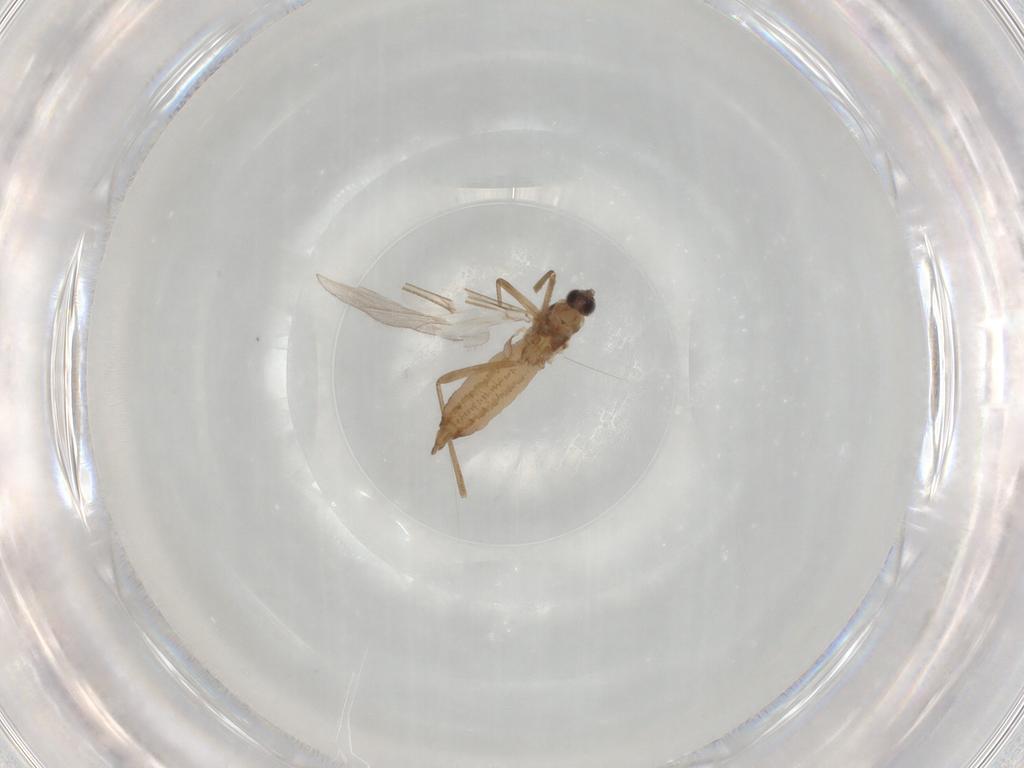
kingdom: Animalia
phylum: Arthropoda
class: Insecta
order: Diptera
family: Cecidomyiidae
